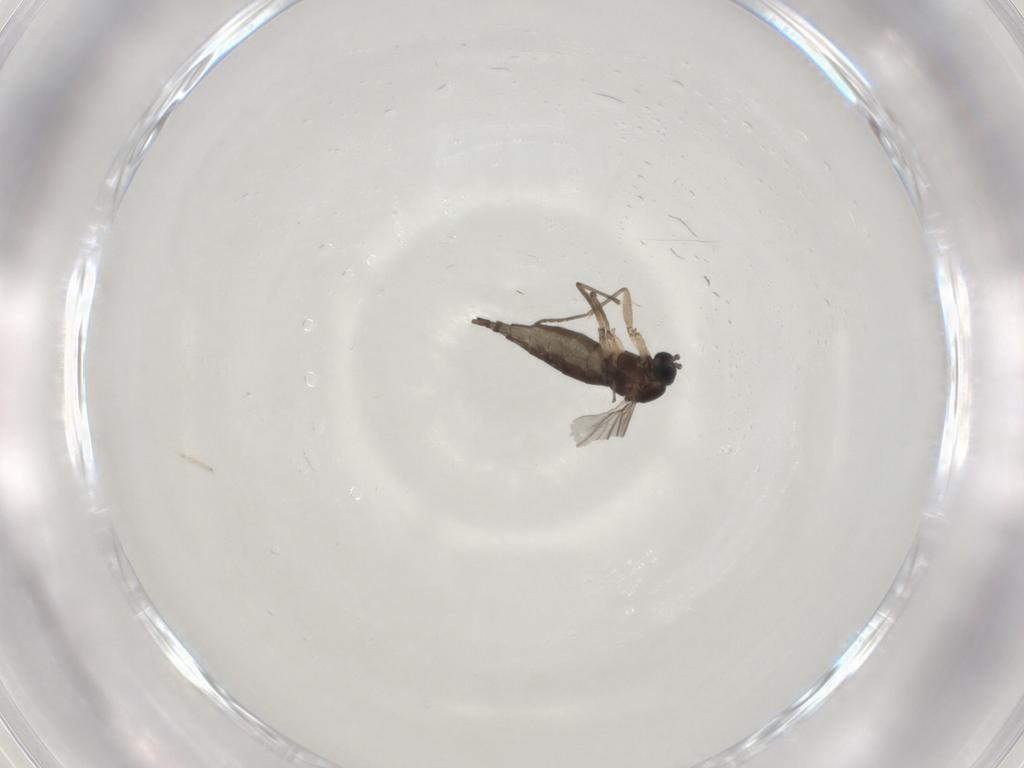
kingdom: Animalia
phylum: Arthropoda
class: Insecta
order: Diptera
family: Sciaridae
